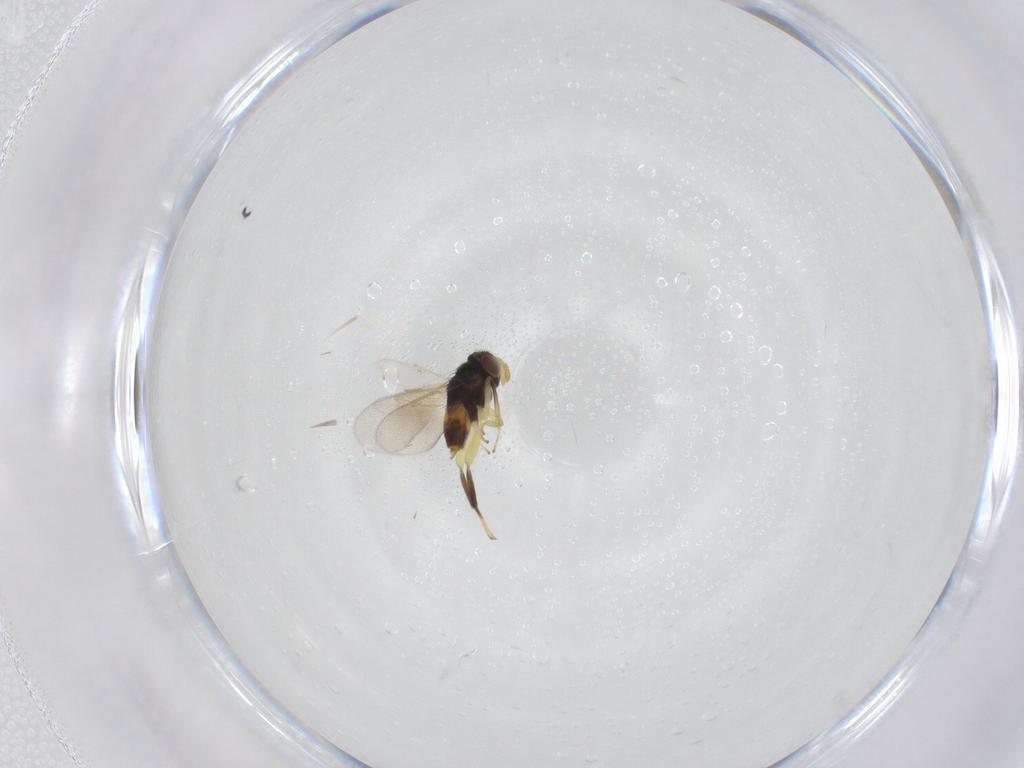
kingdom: Animalia
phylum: Arthropoda
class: Insecta
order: Hymenoptera
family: Aphelinidae
